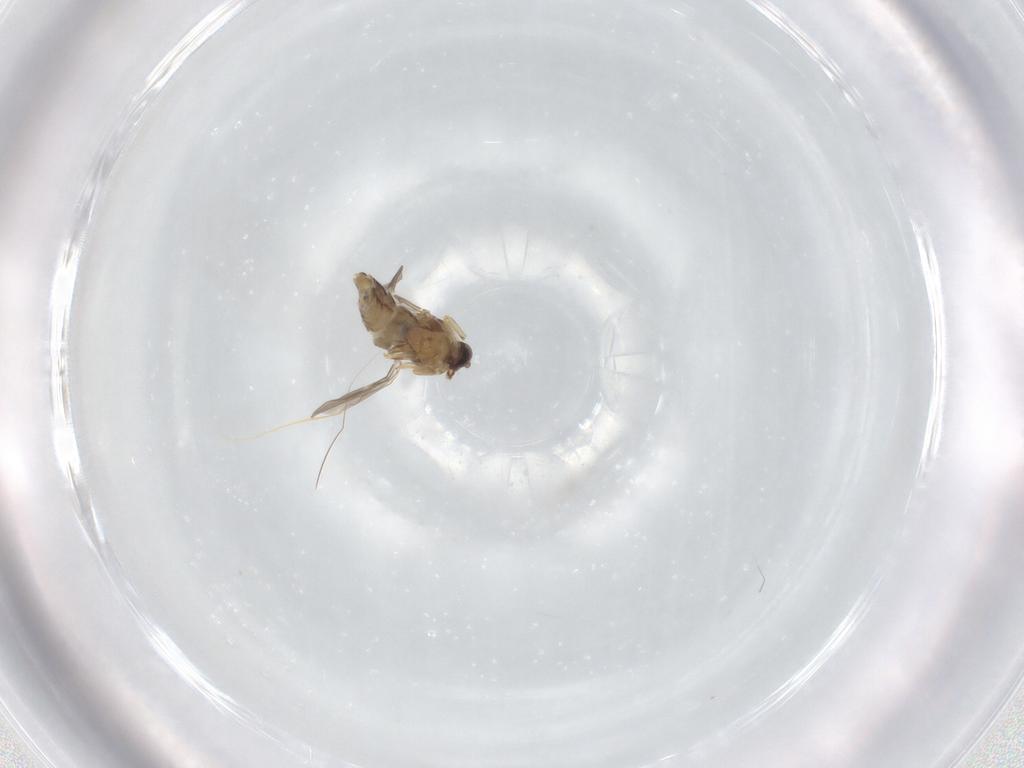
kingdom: Animalia
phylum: Arthropoda
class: Insecta
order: Diptera
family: Ceratopogonidae
